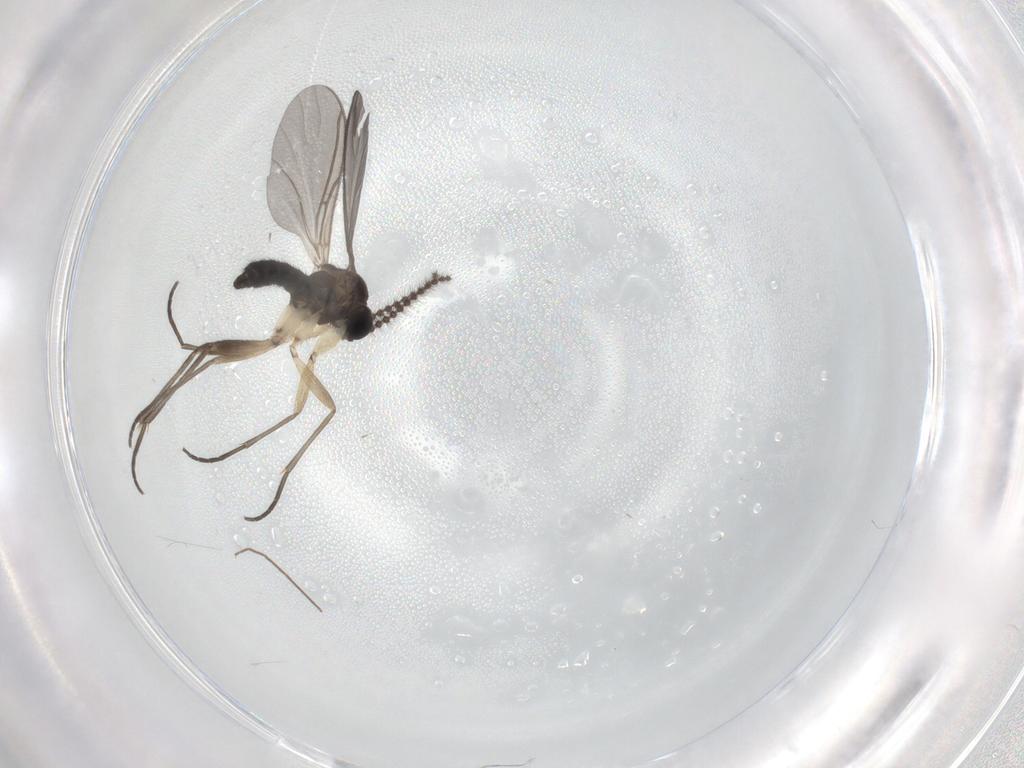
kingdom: Animalia
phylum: Arthropoda
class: Insecta
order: Diptera
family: Sciaridae
